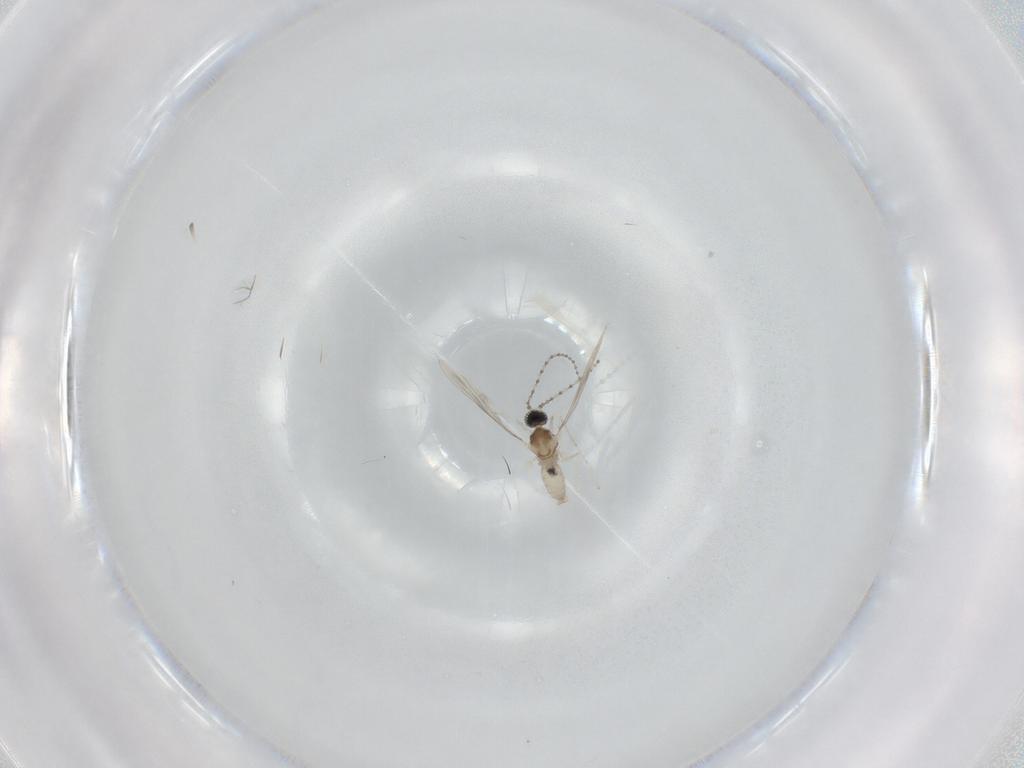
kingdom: Animalia
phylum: Arthropoda
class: Insecta
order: Diptera
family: Cecidomyiidae
